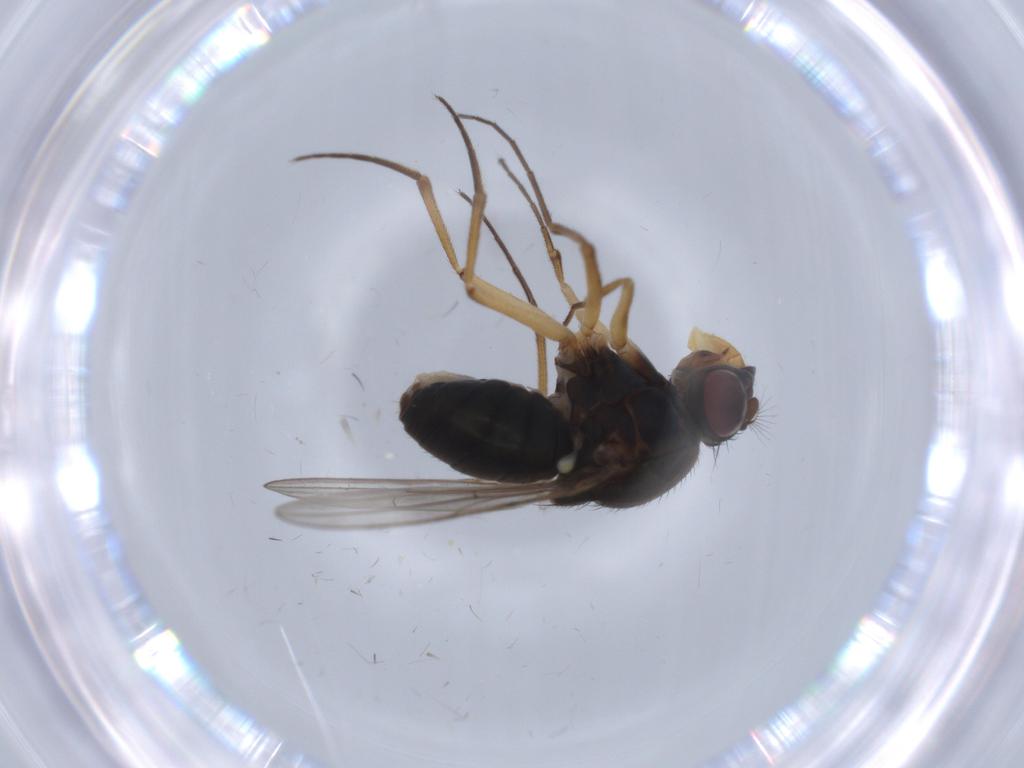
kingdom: Animalia
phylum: Arthropoda
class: Insecta
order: Diptera
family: Ephydridae
